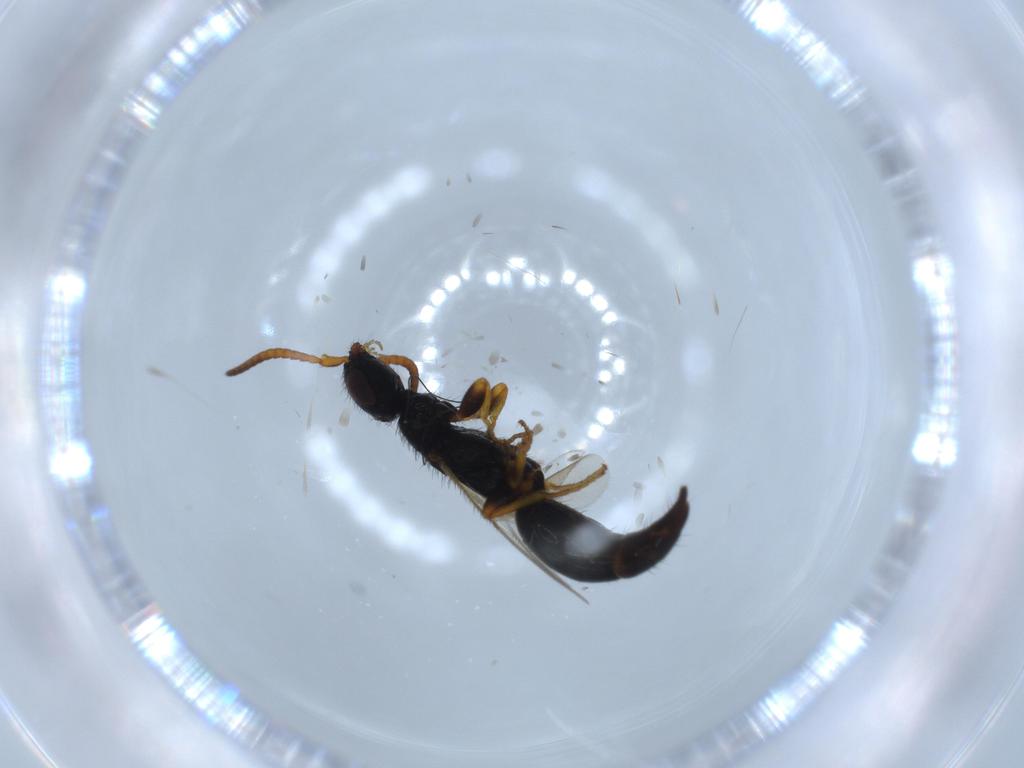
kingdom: Animalia
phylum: Arthropoda
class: Insecta
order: Hymenoptera
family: Bethylidae
